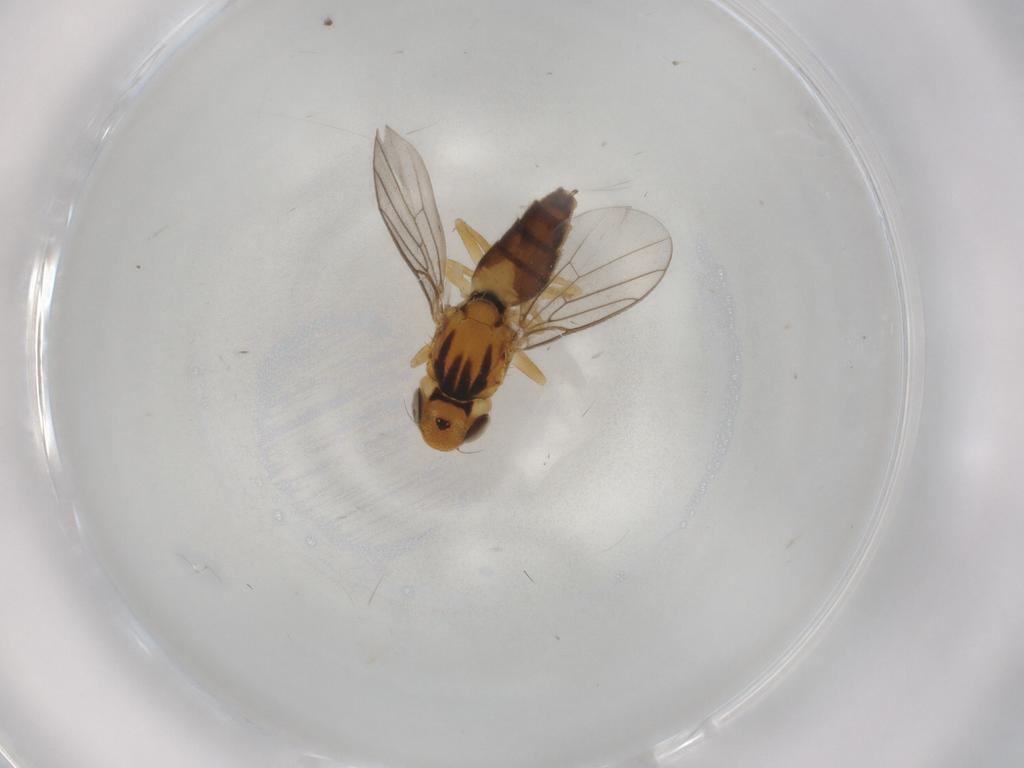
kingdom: Animalia
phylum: Arthropoda
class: Insecta
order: Diptera
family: Chloropidae
